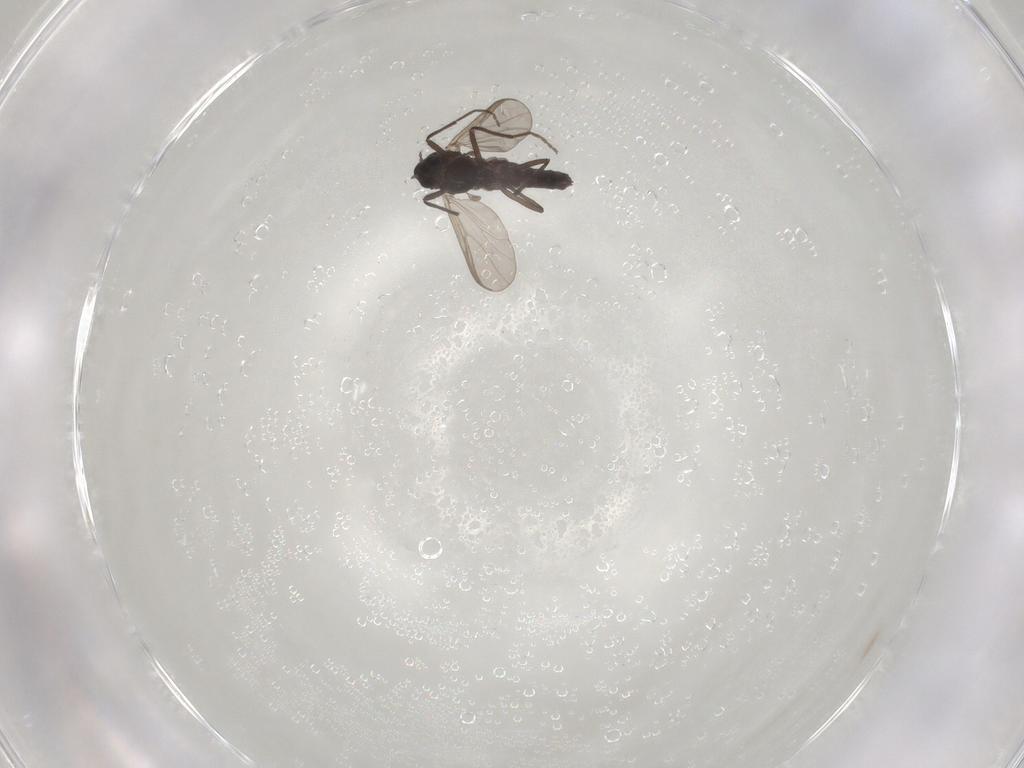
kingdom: Animalia
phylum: Arthropoda
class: Insecta
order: Diptera
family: Chironomidae
